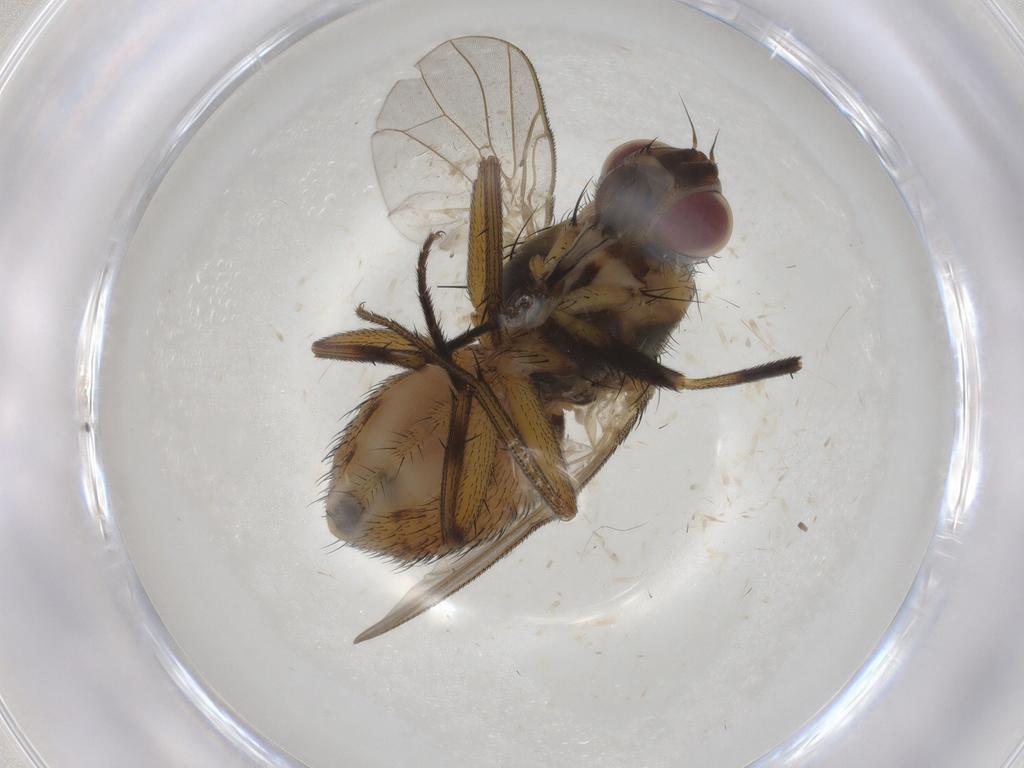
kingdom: Animalia
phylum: Arthropoda
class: Insecta
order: Diptera
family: Muscidae
